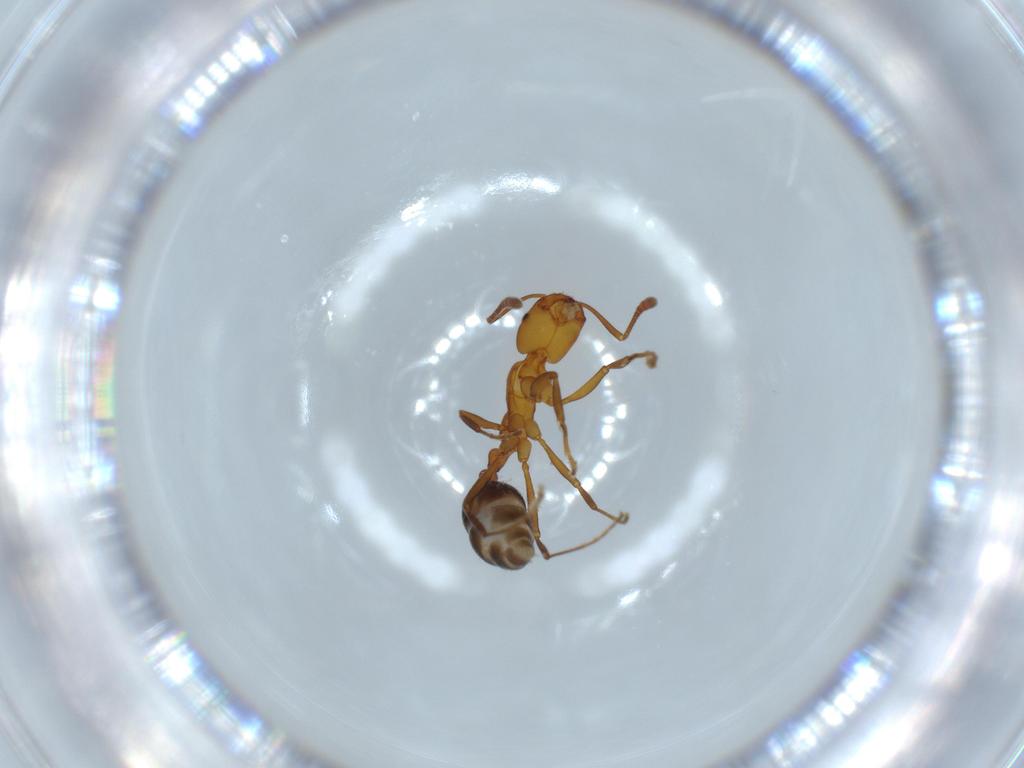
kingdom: Animalia
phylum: Arthropoda
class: Insecta
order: Hymenoptera
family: Formicidae
